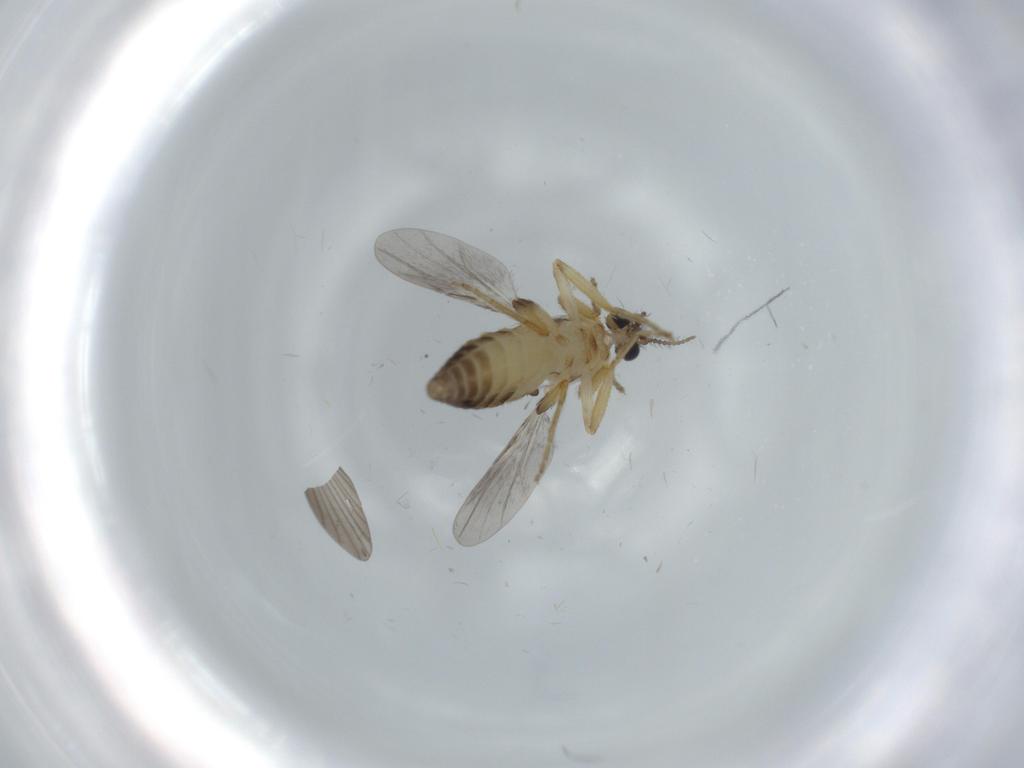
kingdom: Animalia
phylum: Arthropoda
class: Insecta
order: Diptera
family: Ceratopogonidae
